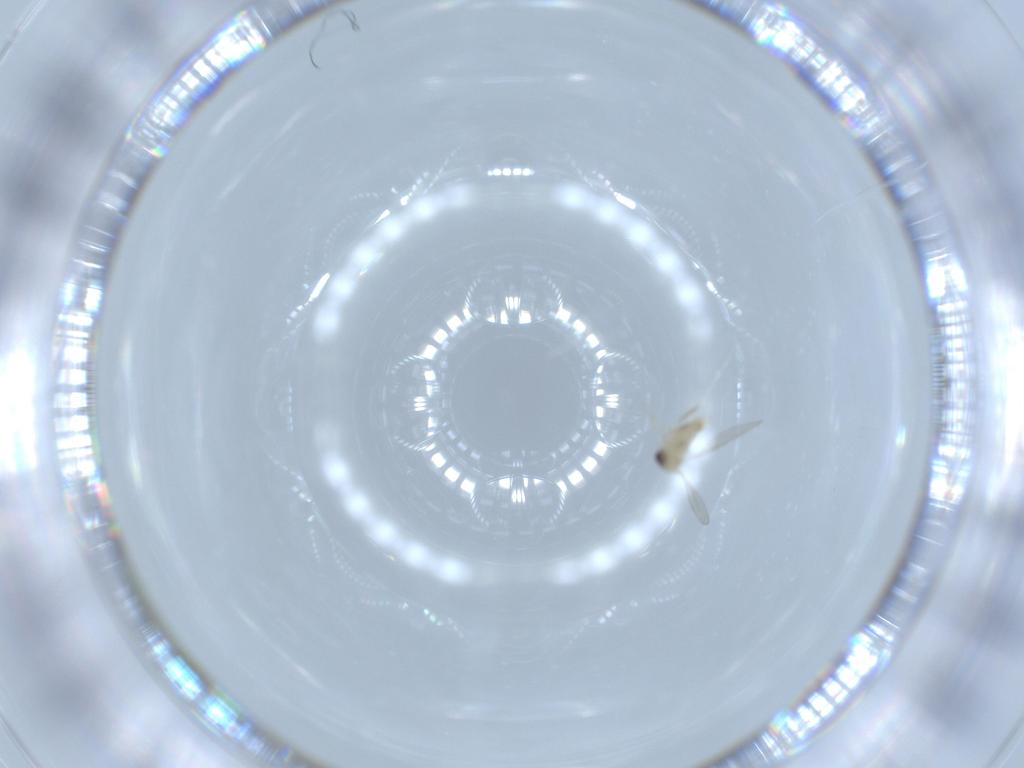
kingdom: Animalia
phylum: Arthropoda
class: Insecta
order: Diptera
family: Cecidomyiidae
